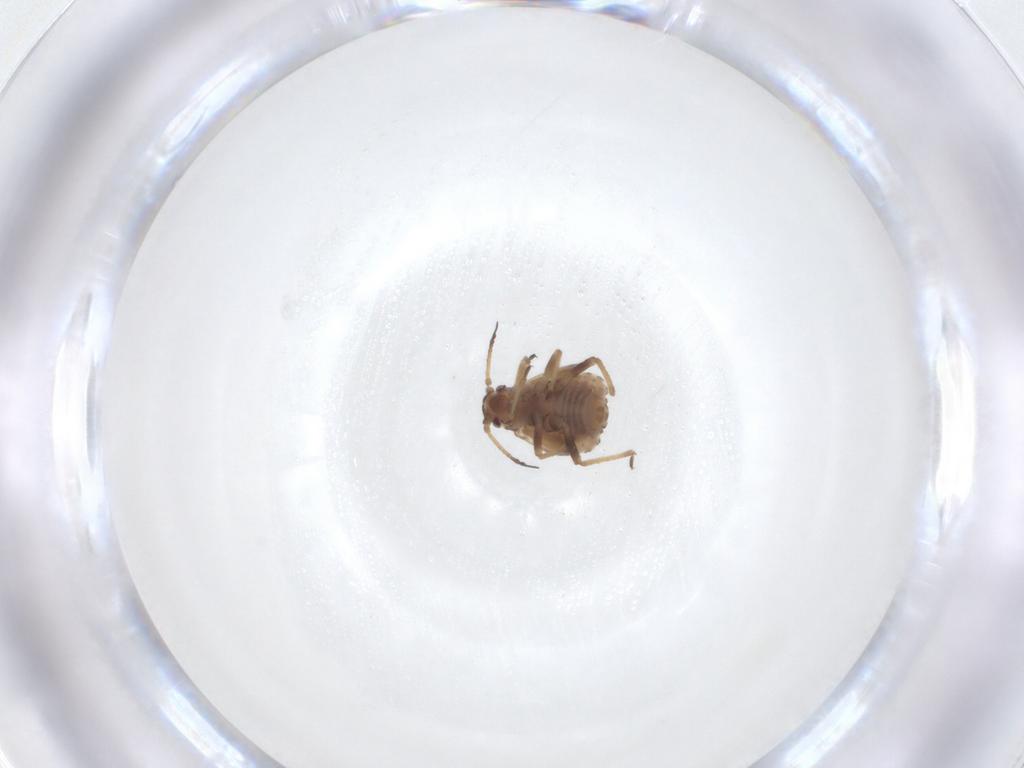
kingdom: Animalia
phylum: Arthropoda
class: Insecta
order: Hemiptera
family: Aphididae
